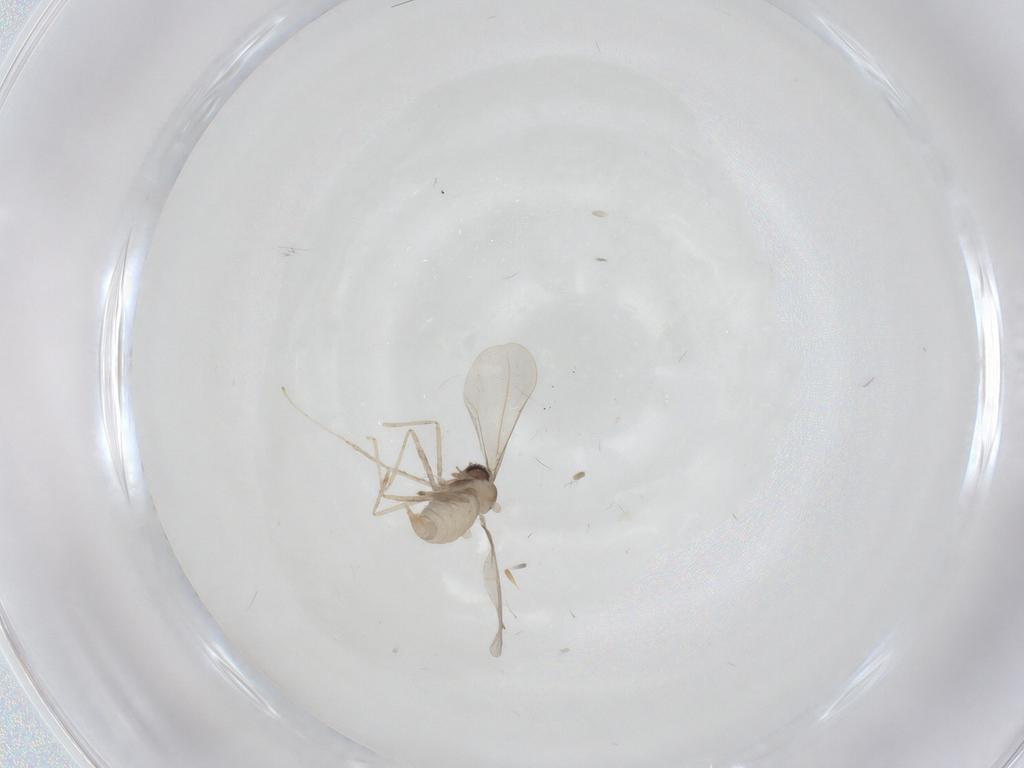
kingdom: Animalia
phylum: Arthropoda
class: Insecta
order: Diptera
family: Cecidomyiidae
